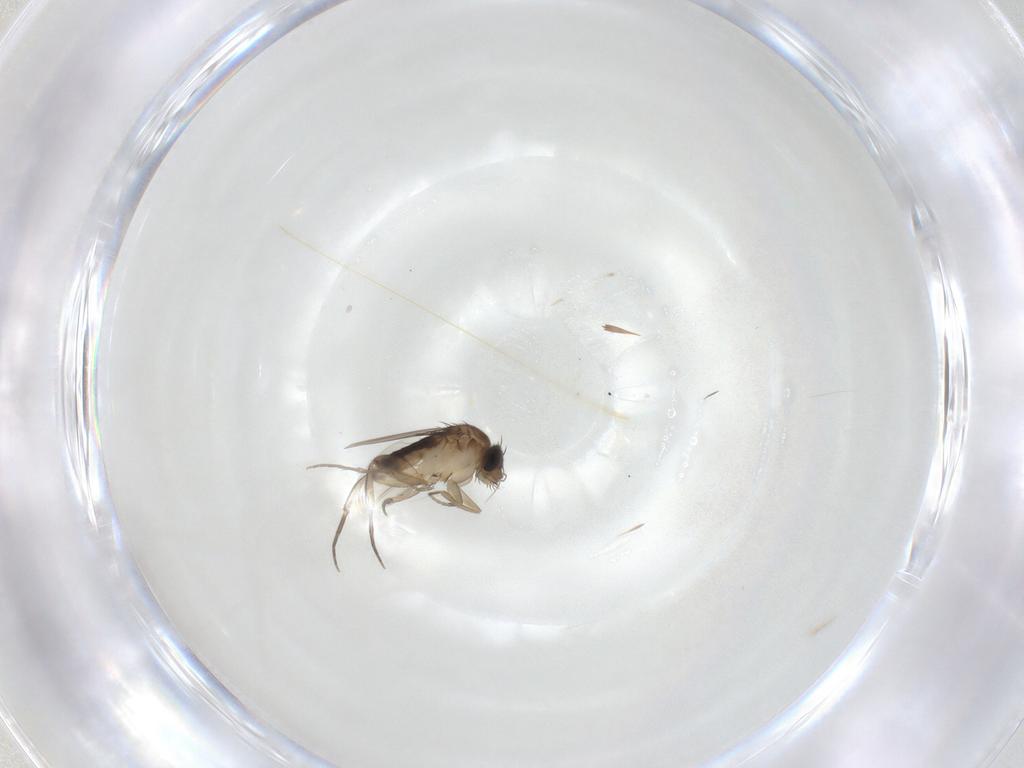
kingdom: Animalia
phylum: Arthropoda
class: Insecta
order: Diptera
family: Phoridae
